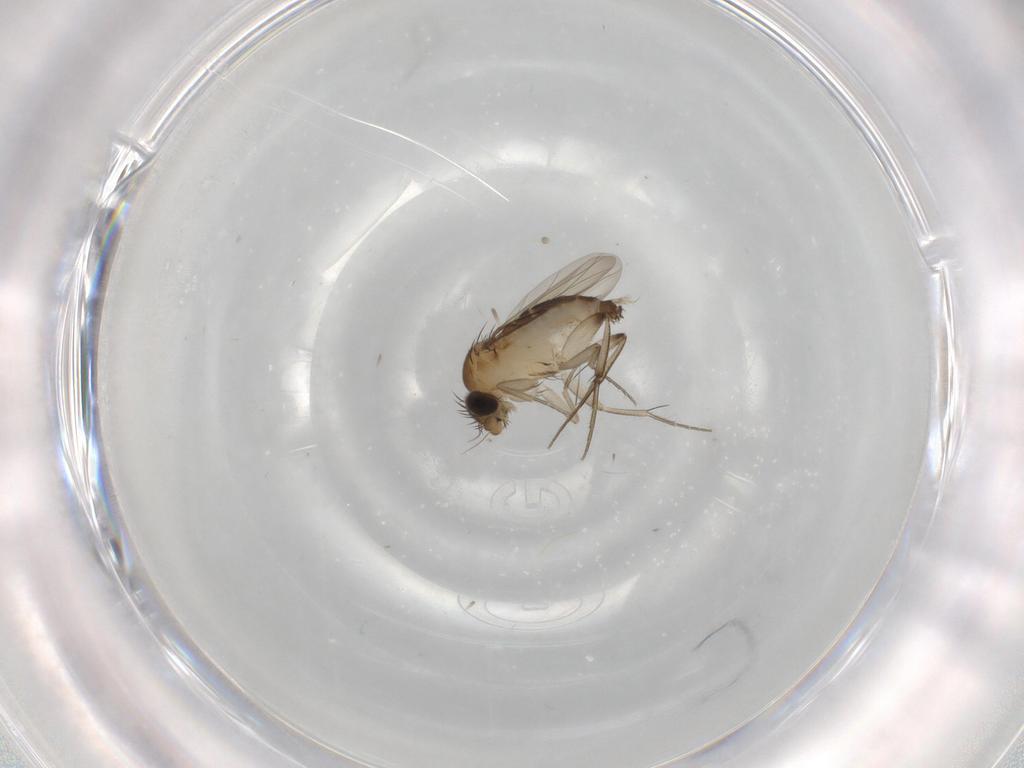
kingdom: Animalia
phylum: Arthropoda
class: Insecta
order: Diptera
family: Phoridae
